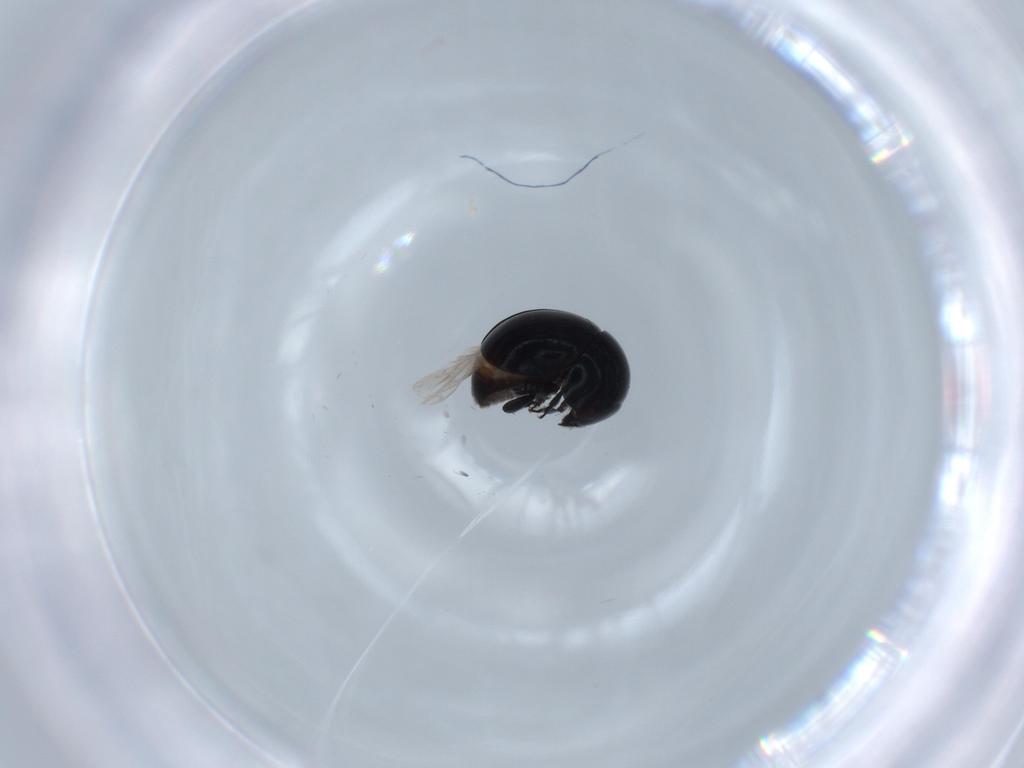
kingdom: Animalia
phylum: Arthropoda
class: Insecta
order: Coleoptera
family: Cybocephalidae
